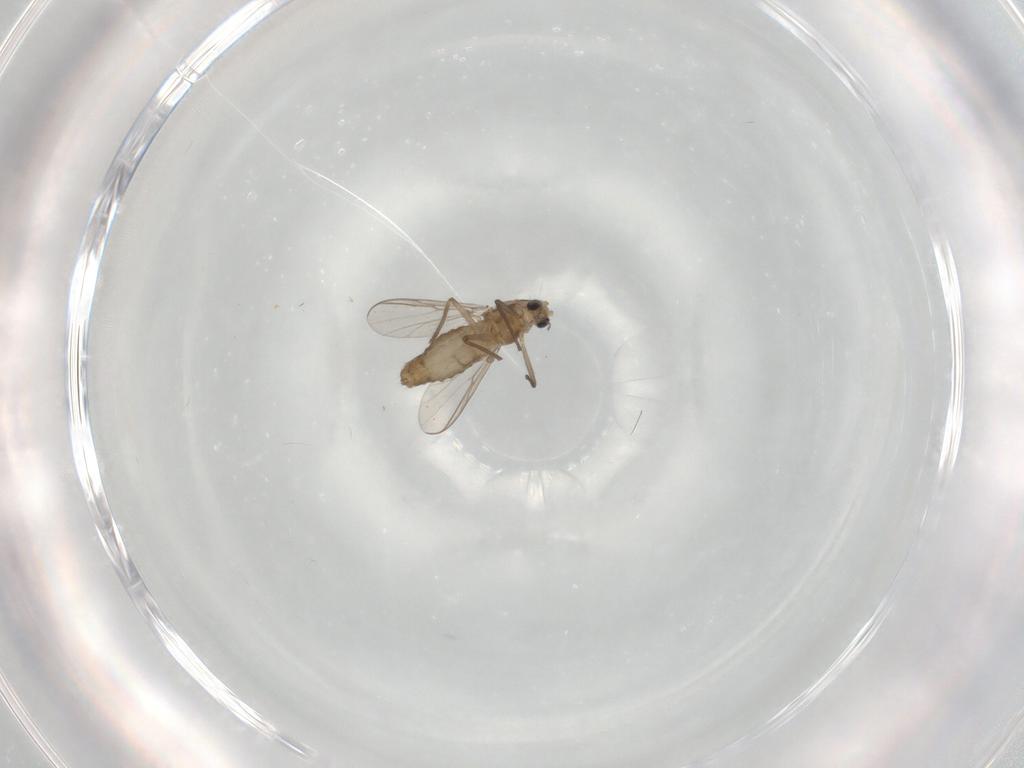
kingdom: Animalia
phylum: Arthropoda
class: Insecta
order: Diptera
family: Chironomidae
